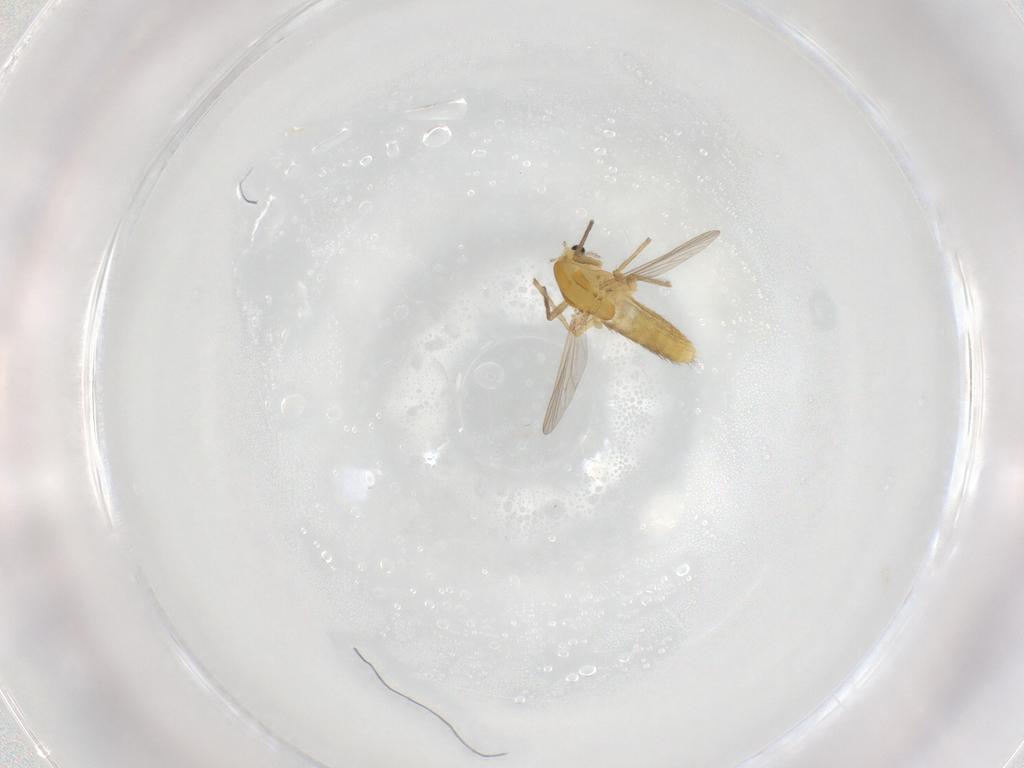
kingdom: Animalia
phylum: Arthropoda
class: Insecta
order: Diptera
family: Chironomidae
